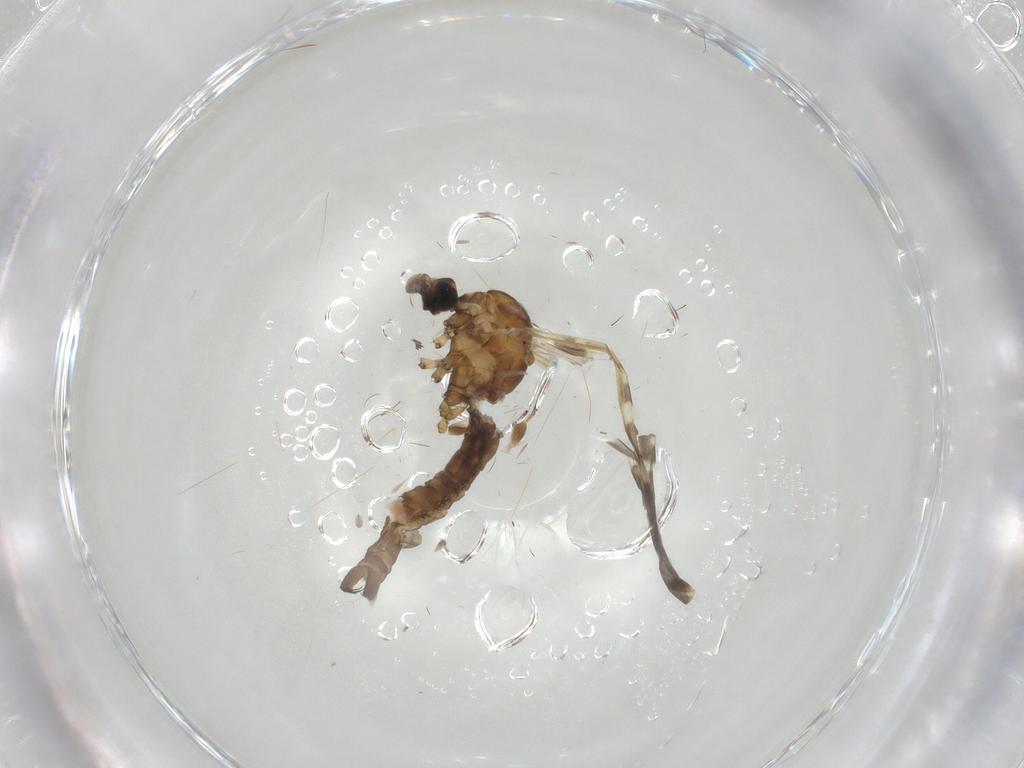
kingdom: Animalia
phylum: Arthropoda
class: Insecta
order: Diptera
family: Limoniidae
